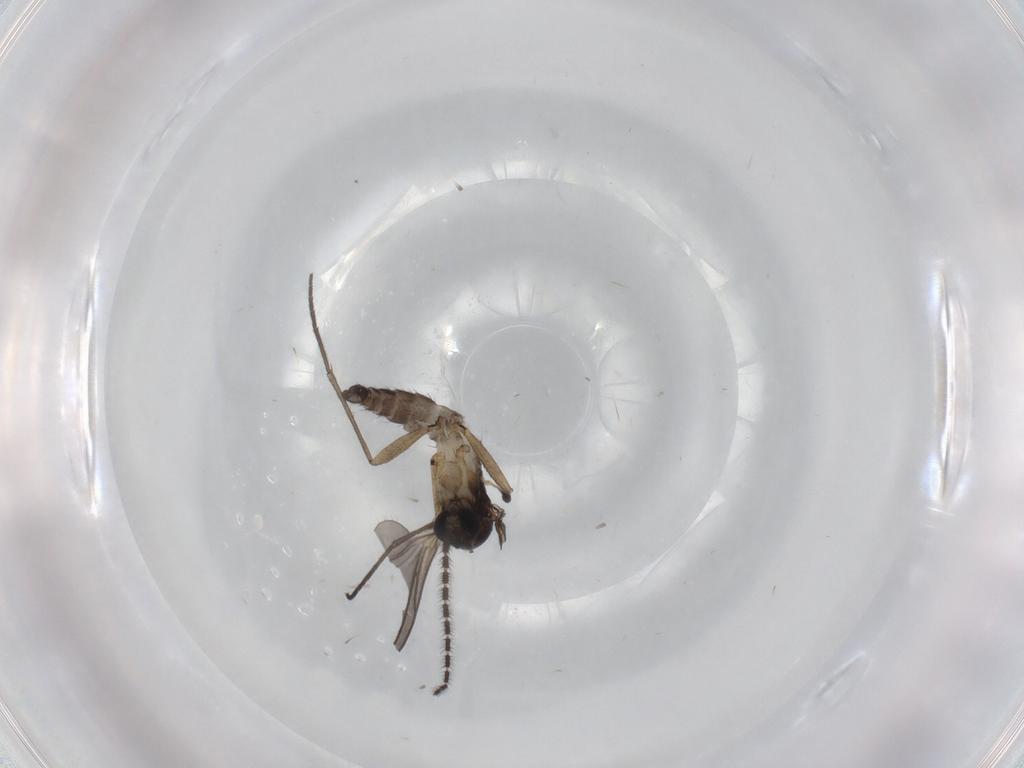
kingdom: Animalia
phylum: Arthropoda
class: Insecta
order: Diptera
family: Sciaridae
